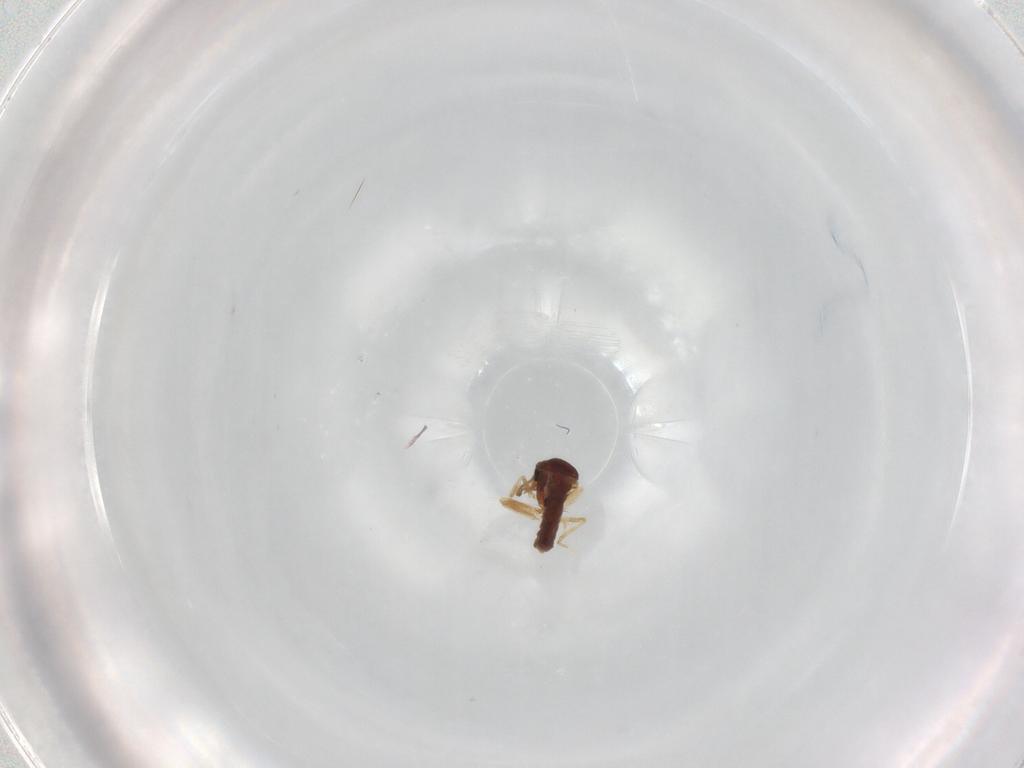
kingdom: Animalia
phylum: Arthropoda
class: Insecta
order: Diptera
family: Ceratopogonidae
